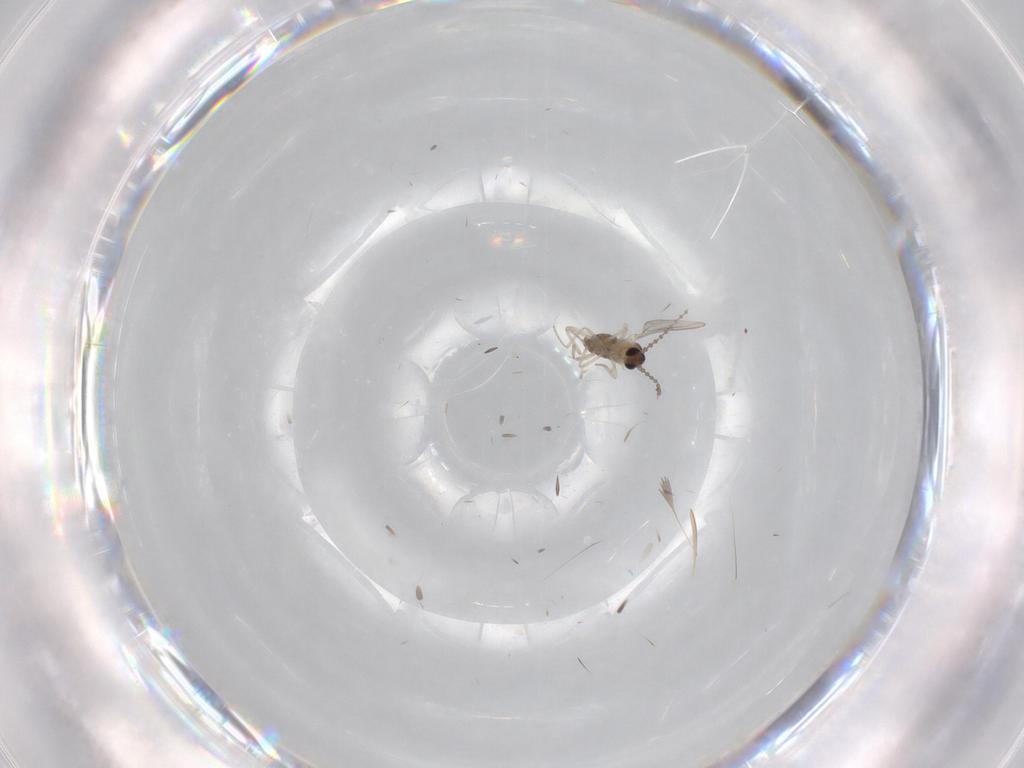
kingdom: Animalia
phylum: Arthropoda
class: Insecta
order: Diptera
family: Cecidomyiidae
